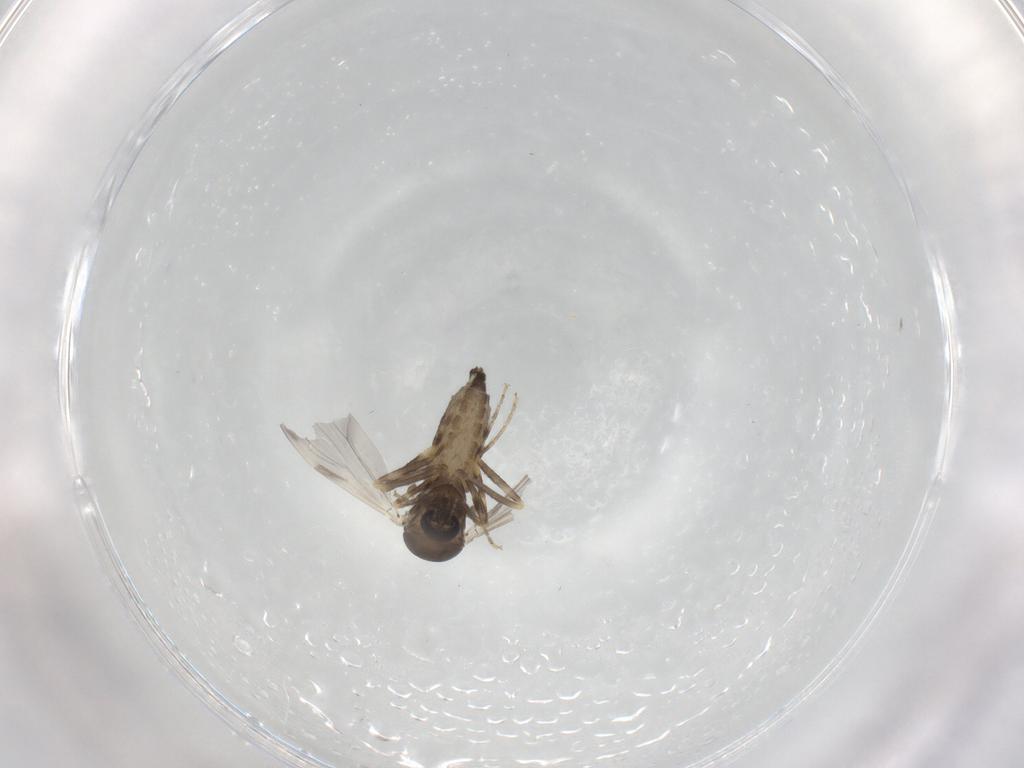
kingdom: Animalia
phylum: Arthropoda
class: Insecta
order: Diptera
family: Ceratopogonidae
